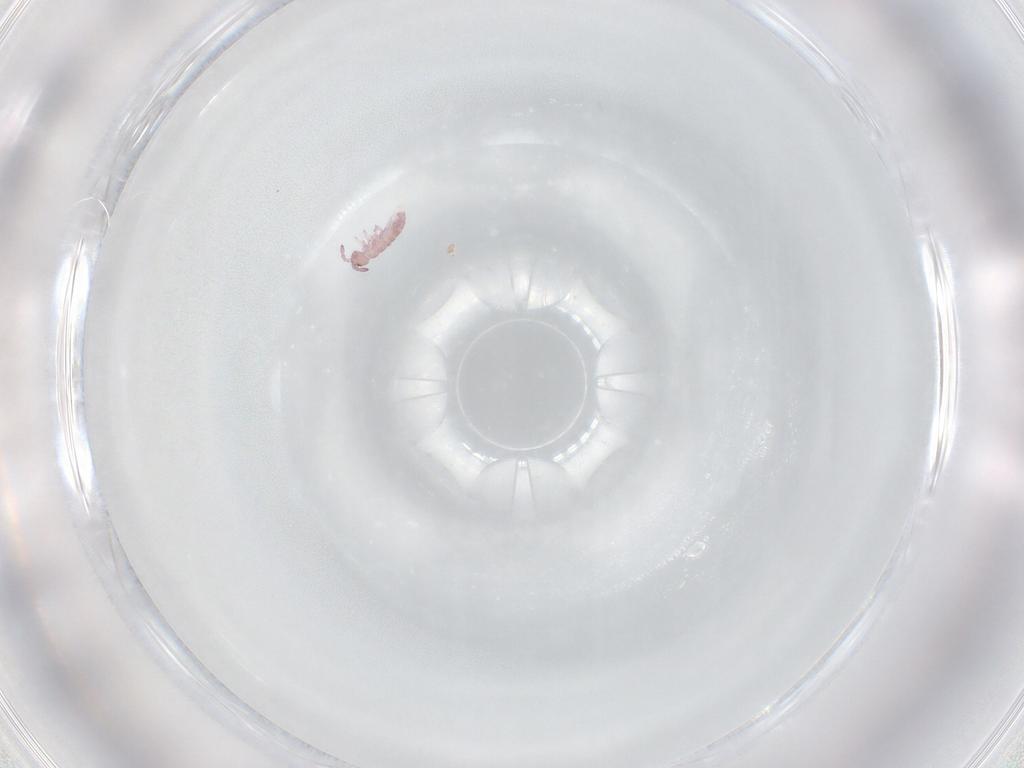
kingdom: Animalia
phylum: Arthropoda
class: Collembola
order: Entomobryomorpha
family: Isotomidae
